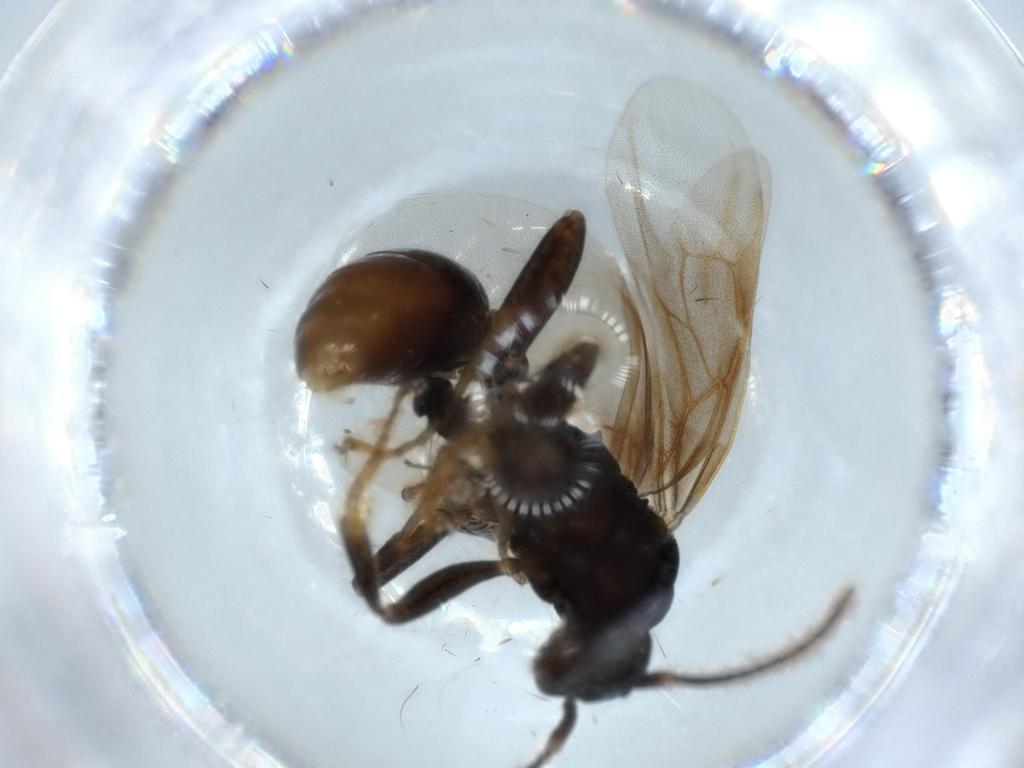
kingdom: Animalia
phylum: Arthropoda
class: Insecta
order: Hymenoptera
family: Formicidae
